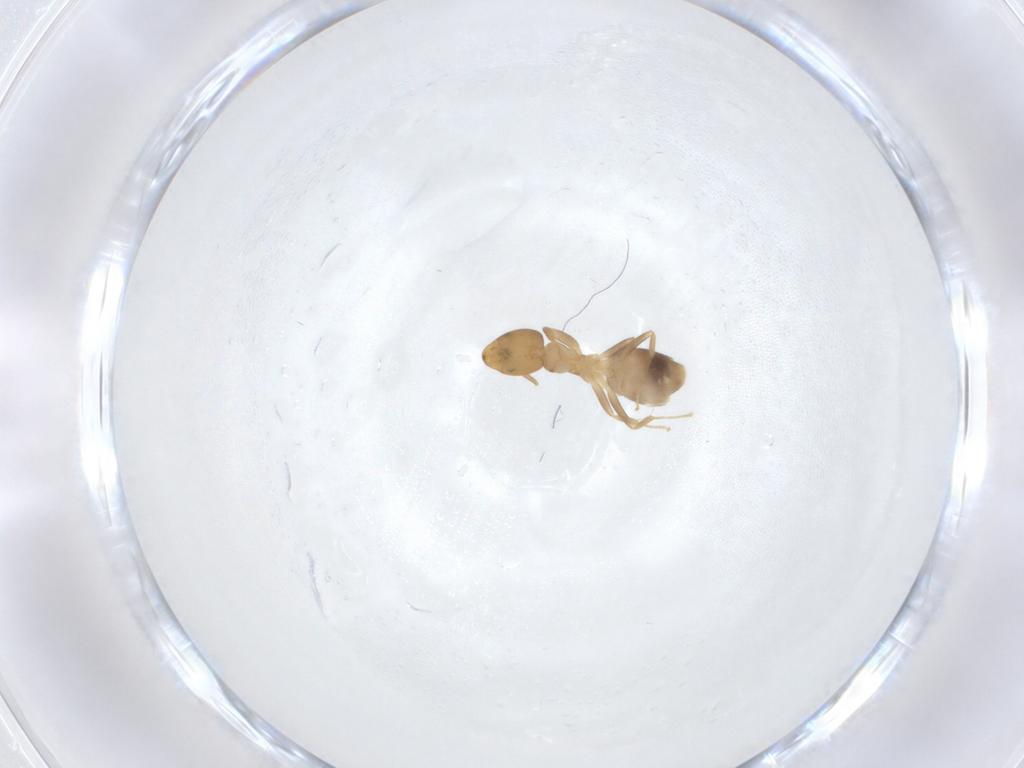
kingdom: Animalia
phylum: Arthropoda
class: Insecta
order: Hymenoptera
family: Formicidae
